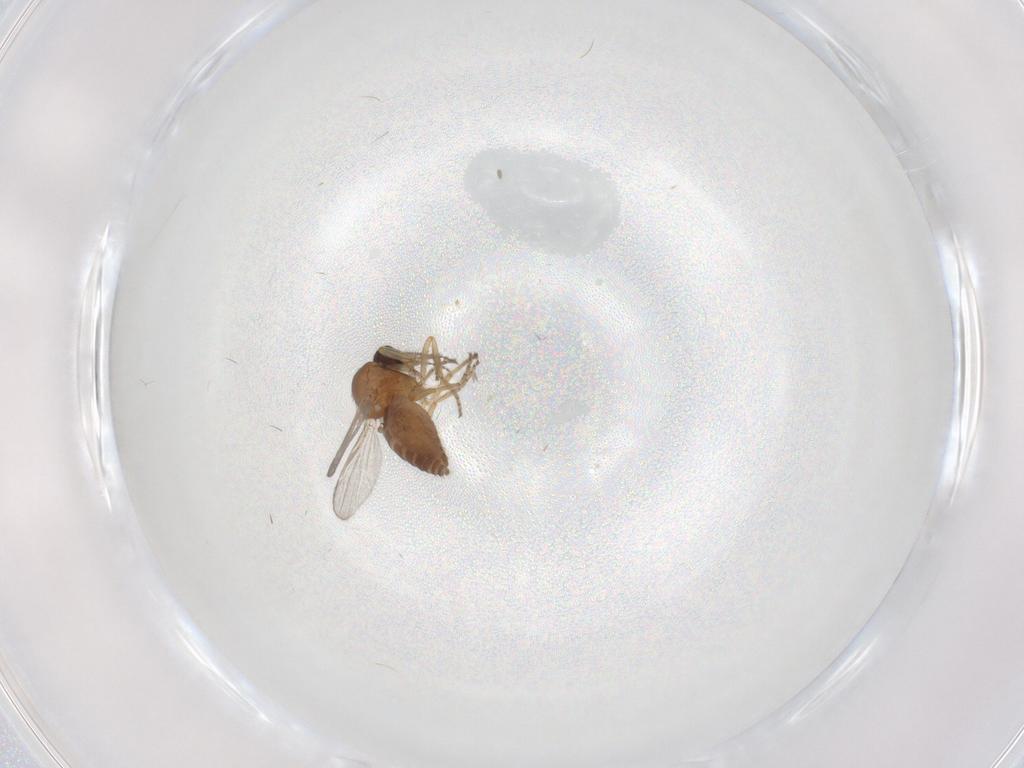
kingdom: Animalia
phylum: Arthropoda
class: Insecta
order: Diptera
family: Ceratopogonidae
